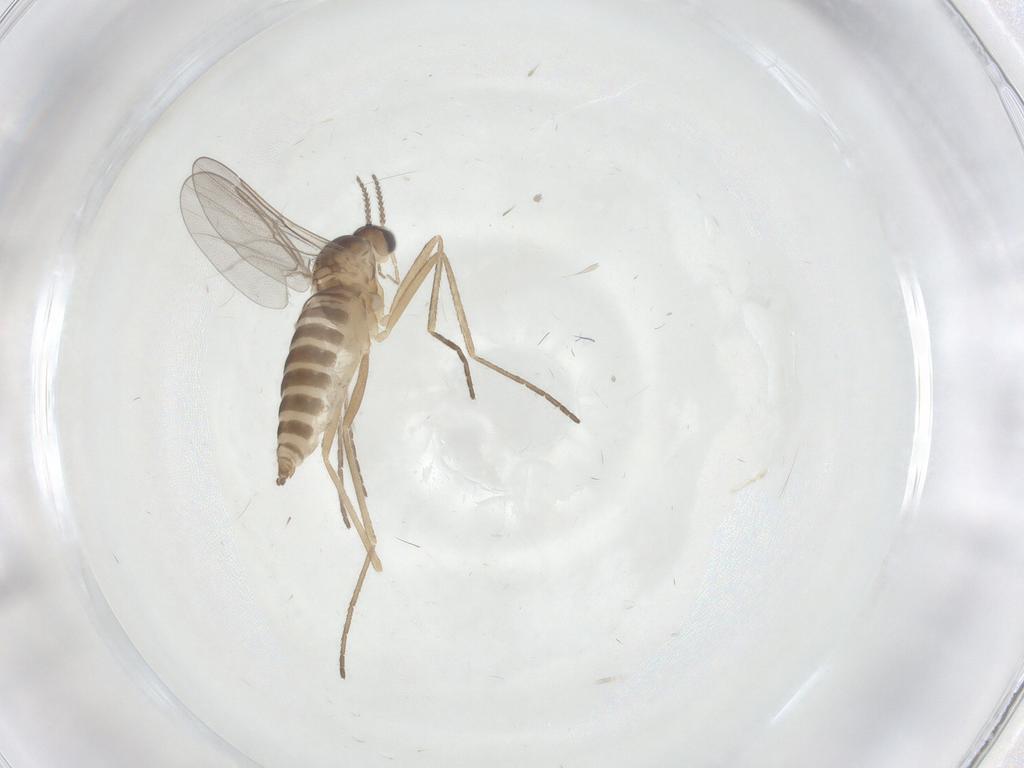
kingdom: Animalia
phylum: Arthropoda
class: Insecta
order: Diptera
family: Cecidomyiidae
